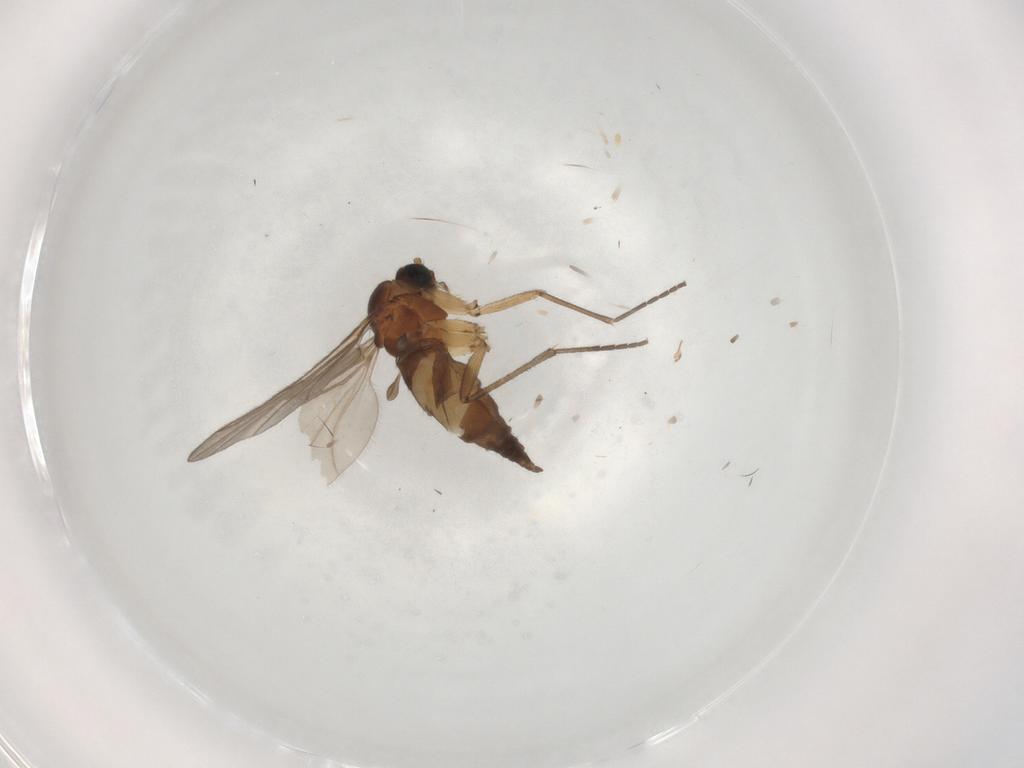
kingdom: Animalia
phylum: Arthropoda
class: Insecta
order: Diptera
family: Sciaridae
